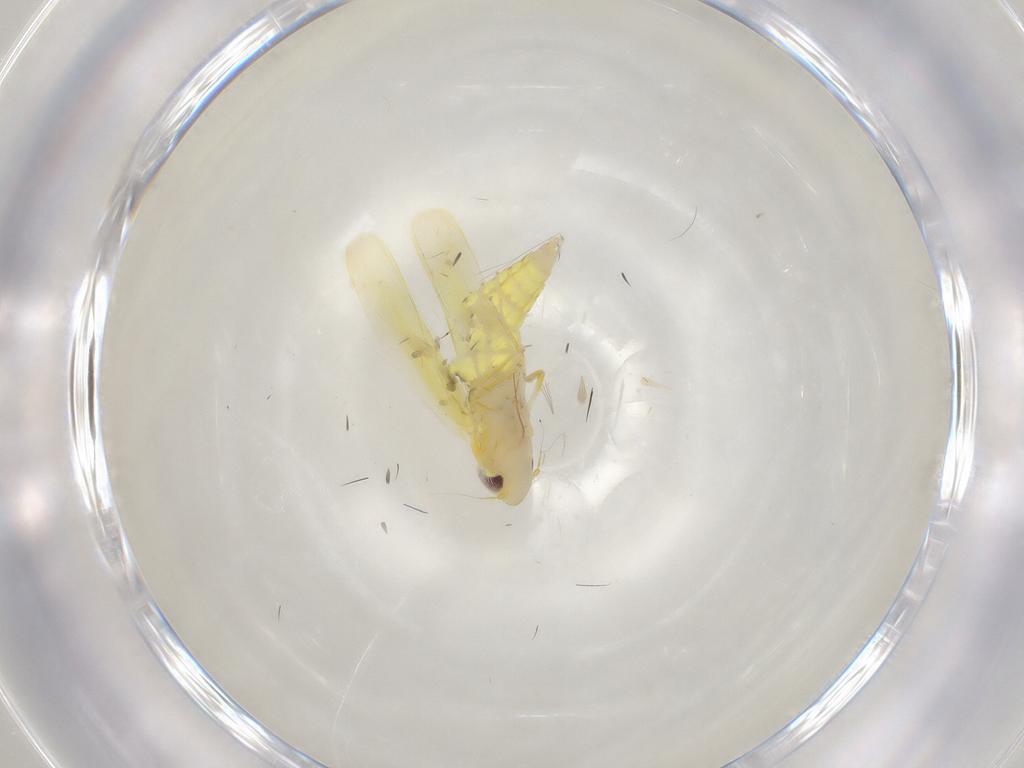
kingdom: Animalia
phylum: Arthropoda
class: Insecta
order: Hemiptera
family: Cicadellidae
